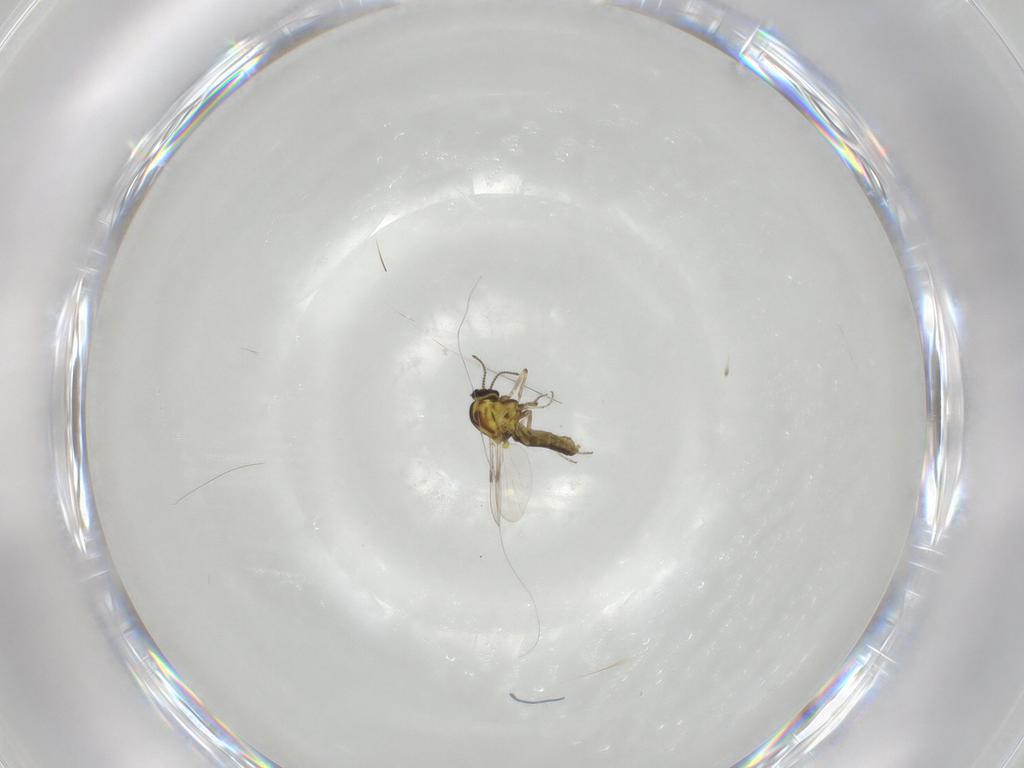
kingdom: Animalia
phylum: Arthropoda
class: Insecta
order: Diptera
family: Ceratopogonidae
